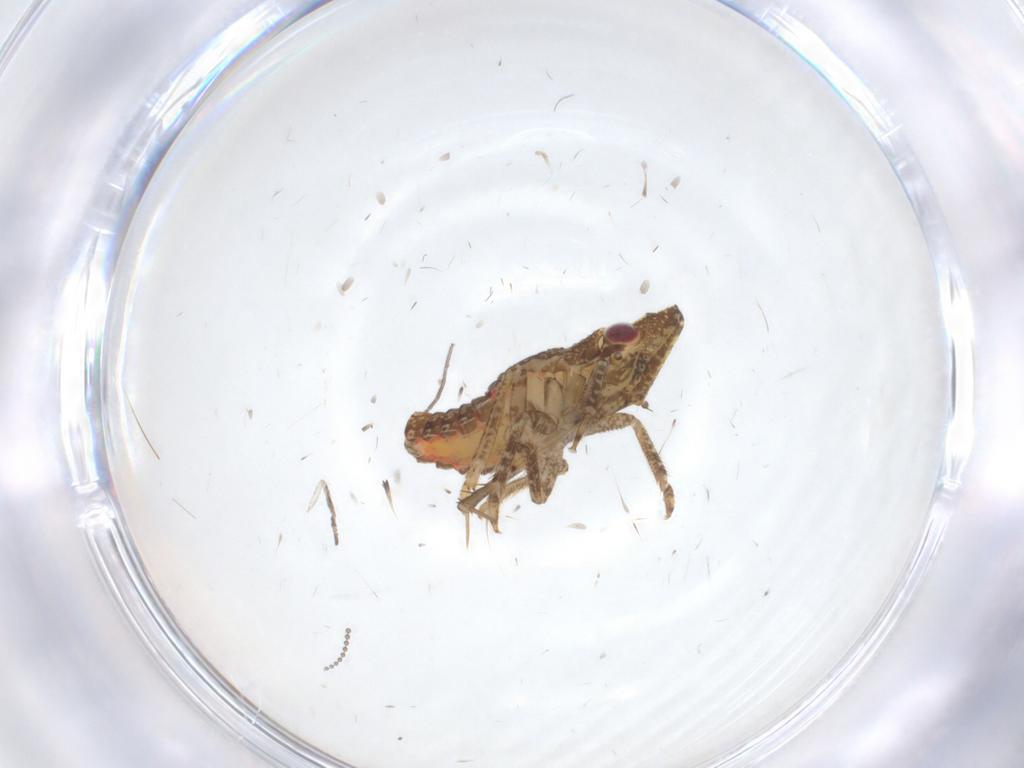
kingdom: Animalia
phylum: Arthropoda
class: Insecta
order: Hemiptera
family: Fulgoroidea_incertae_sedis
